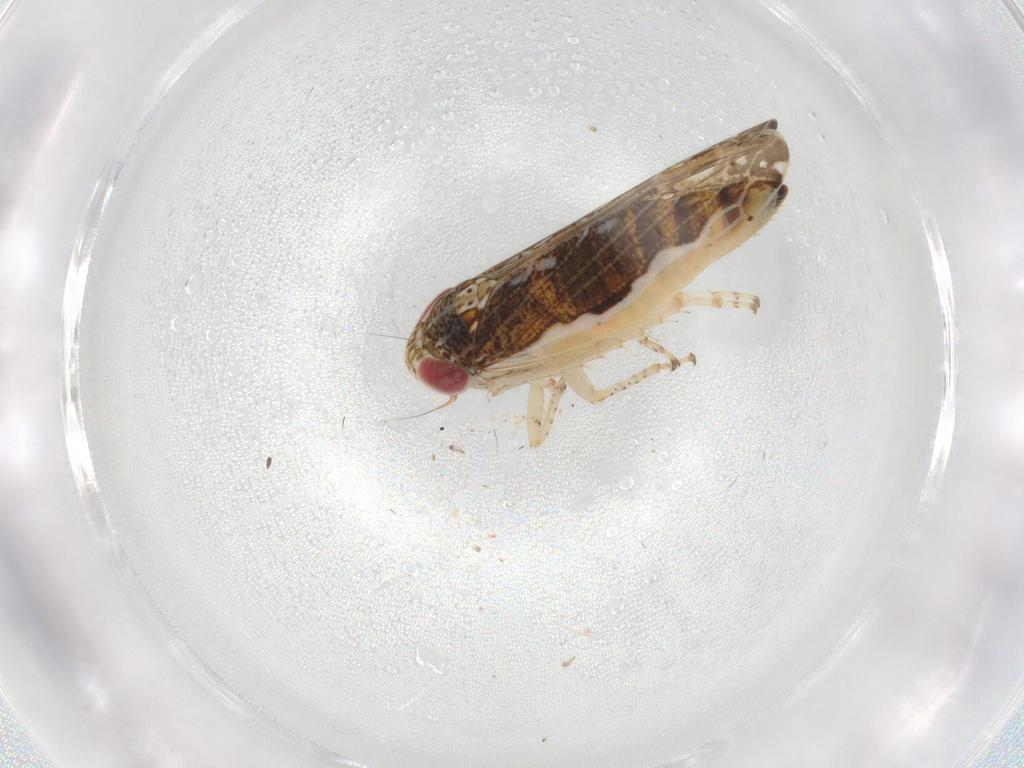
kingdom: Animalia
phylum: Arthropoda
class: Insecta
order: Hemiptera
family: Cicadellidae
